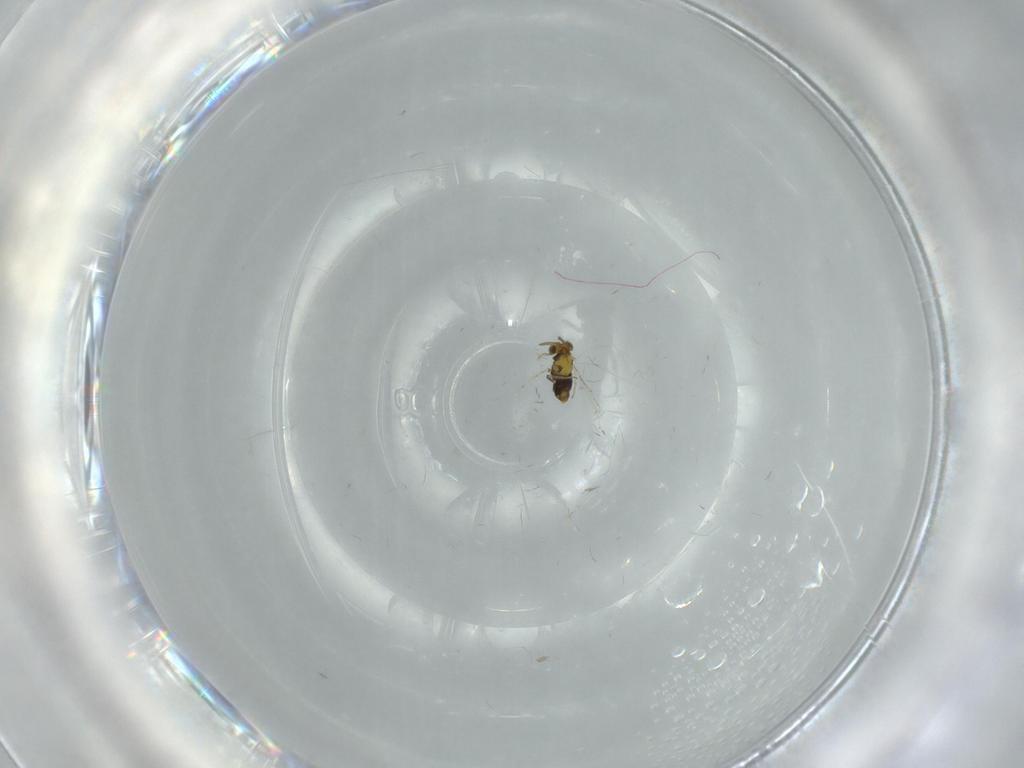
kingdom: Animalia
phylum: Arthropoda
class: Insecta
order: Hymenoptera
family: Aphelinidae
